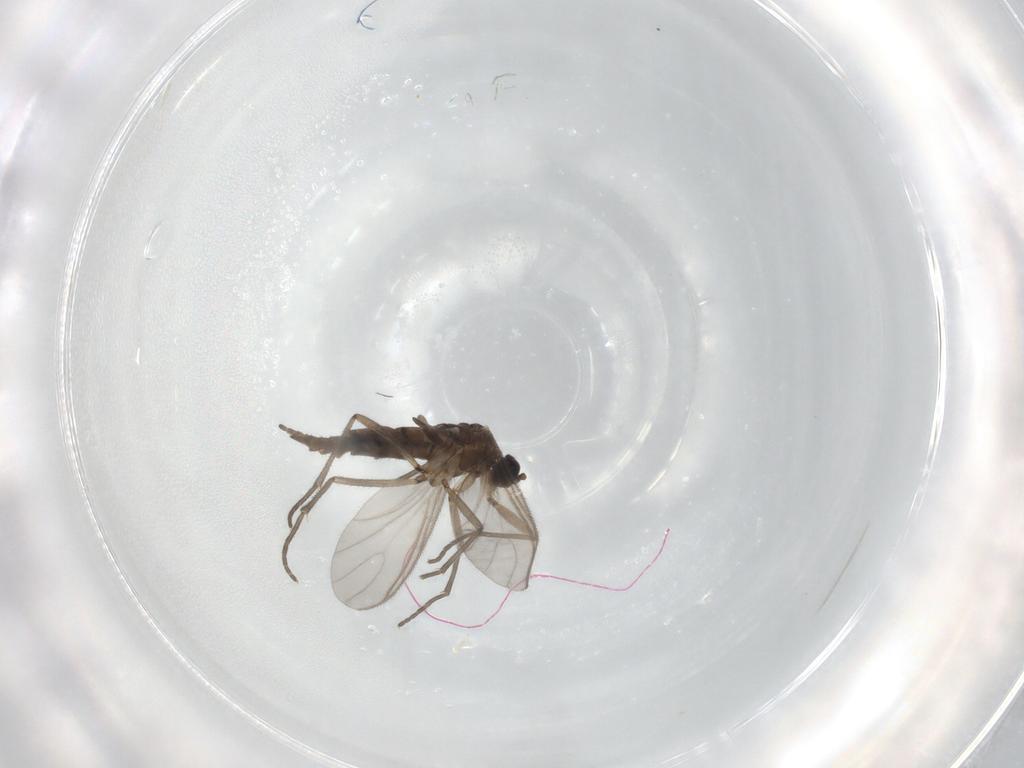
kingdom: Animalia
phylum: Arthropoda
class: Insecta
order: Diptera
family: Sciaridae
